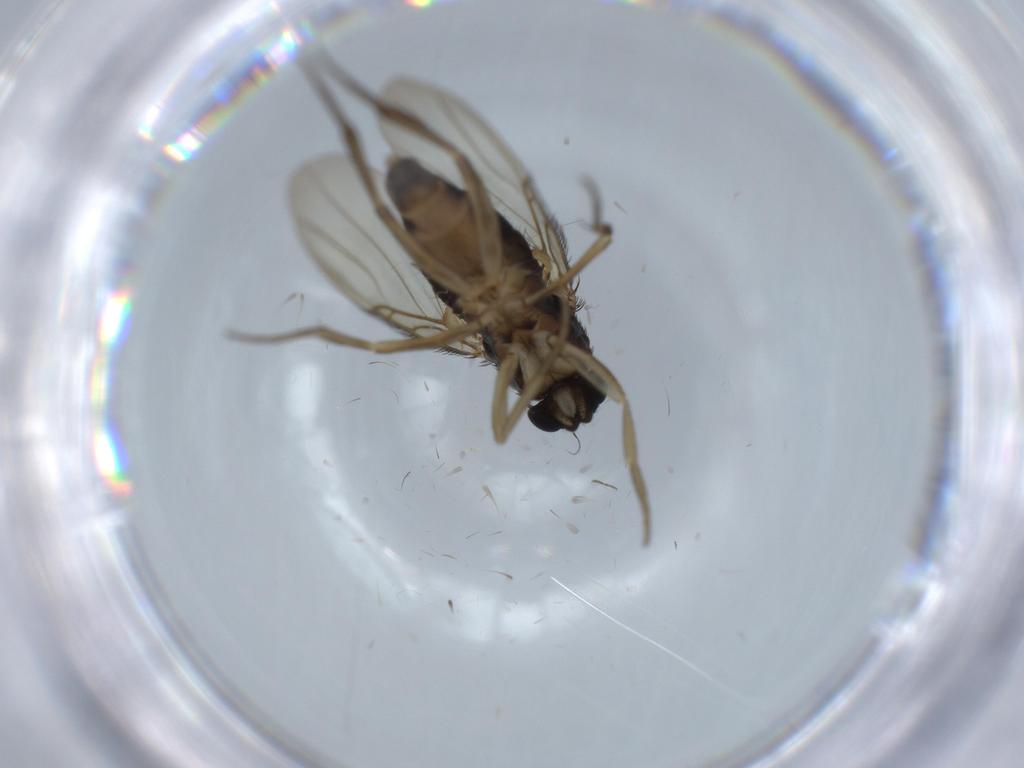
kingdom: Animalia
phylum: Arthropoda
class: Insecta
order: Diptera
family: Phoridae
